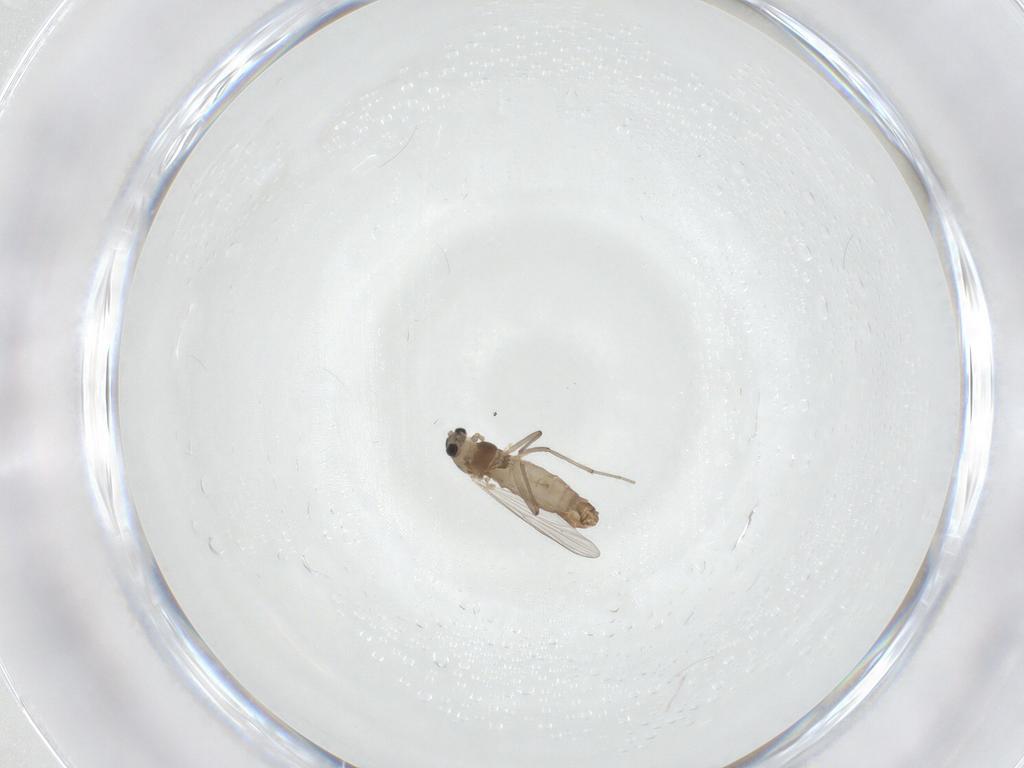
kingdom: Animalia
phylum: Arthropoda
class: Insecta
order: Diptera
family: Chironomidae
